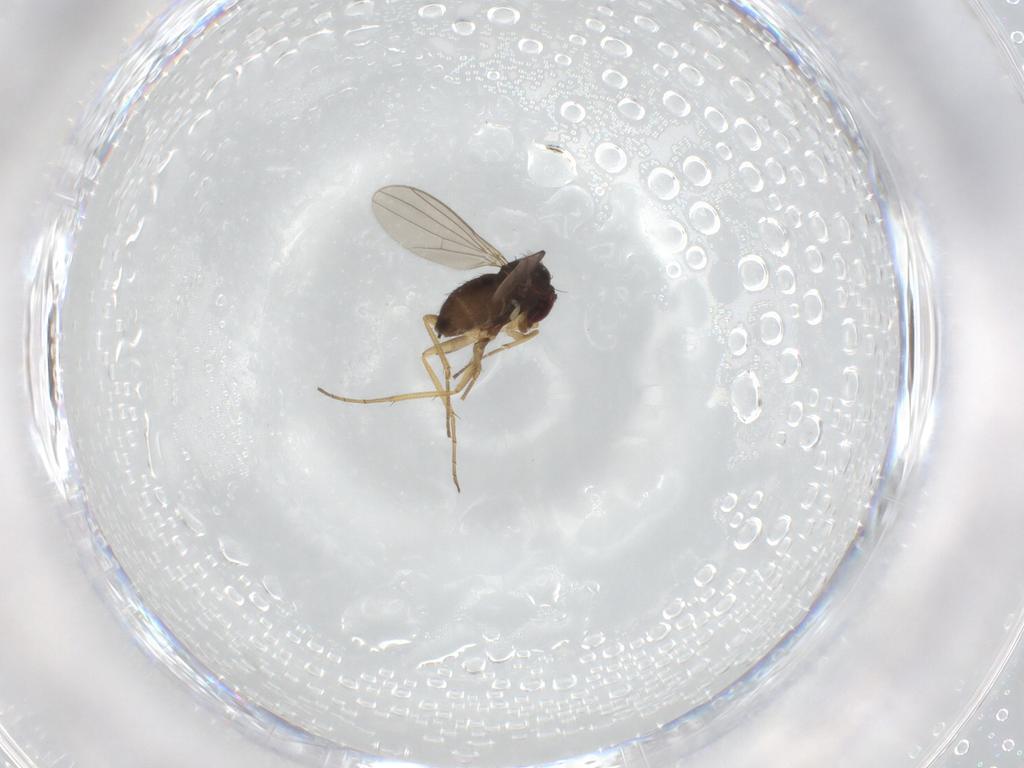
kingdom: Animalia
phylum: Arthropoda
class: Insecta
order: Diptera
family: Dolichopodidae
